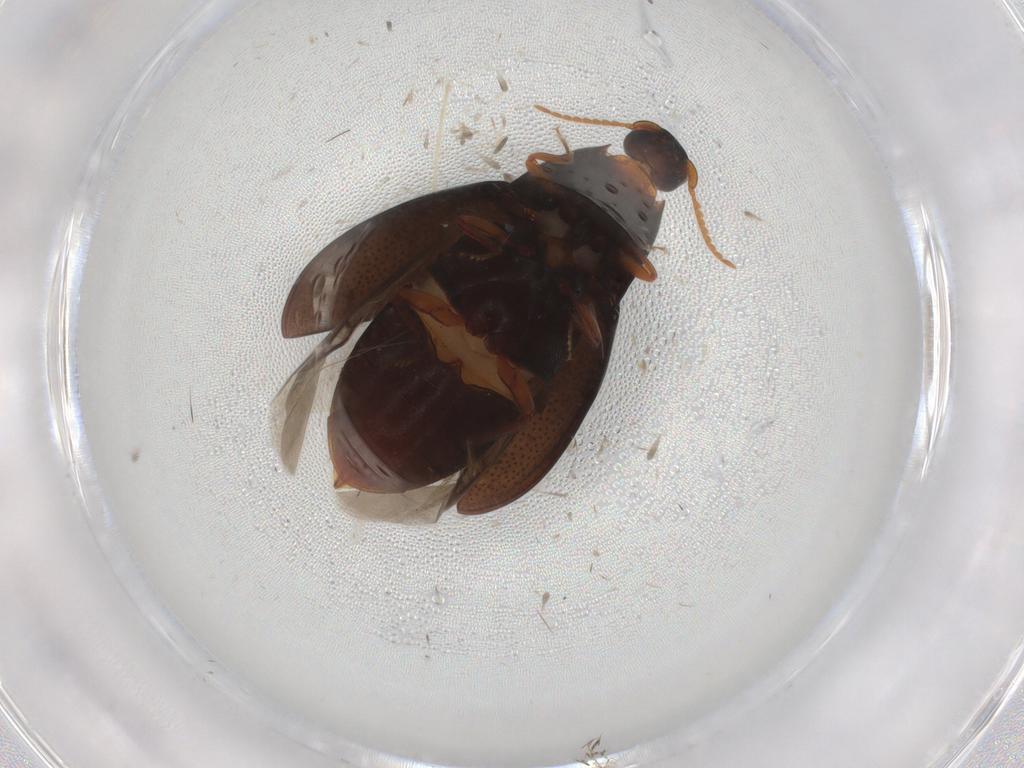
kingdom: Animalia
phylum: Arthropoda
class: Insecta
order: Coleoptera
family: Elateridae
